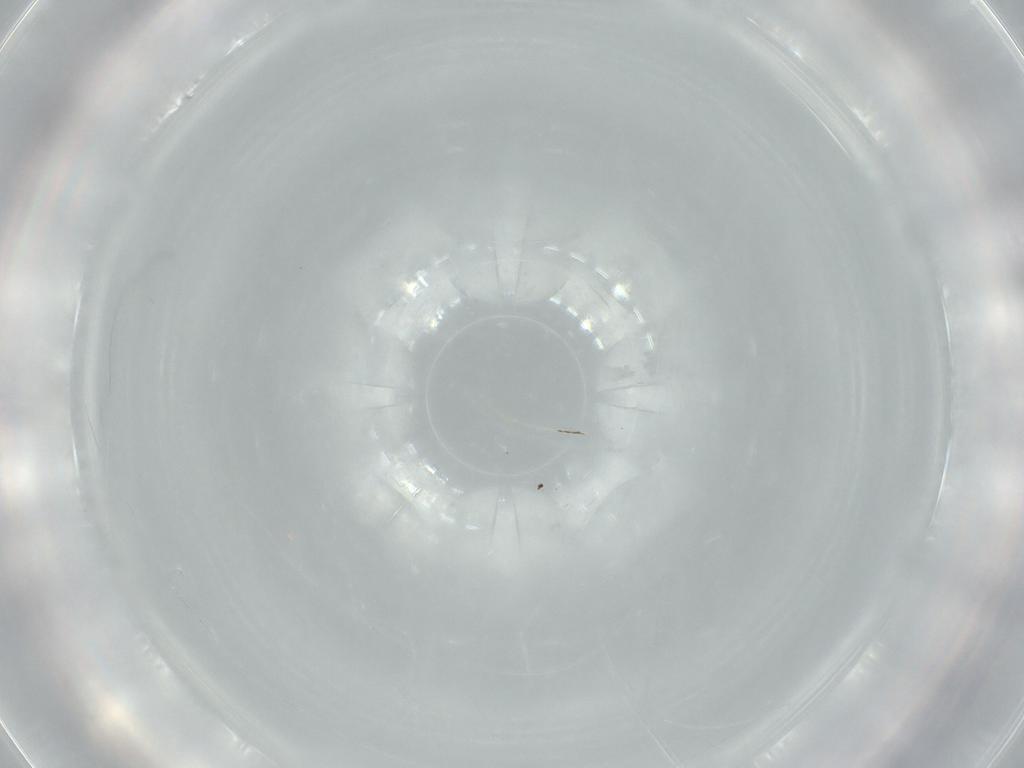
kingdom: Animalia
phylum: Arthropoda
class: Insecta
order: Diptera
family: Cecidomyiidae
